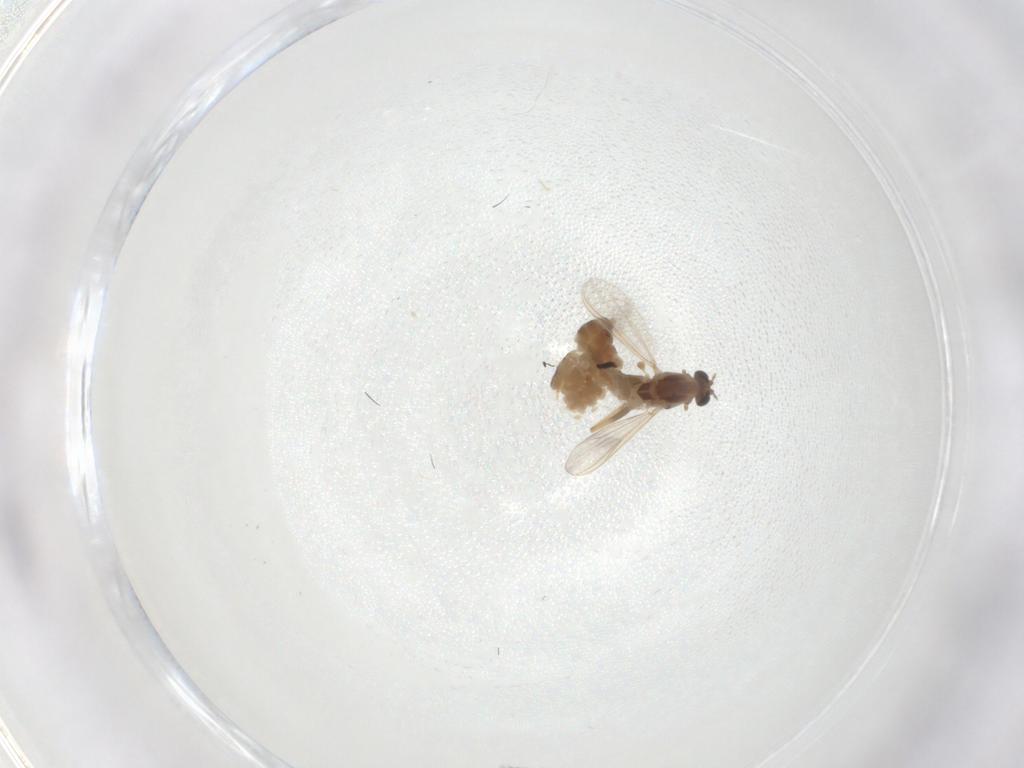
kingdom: Animalia
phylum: Arthropoda
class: Insecta
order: Diptera
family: Chironomidae
